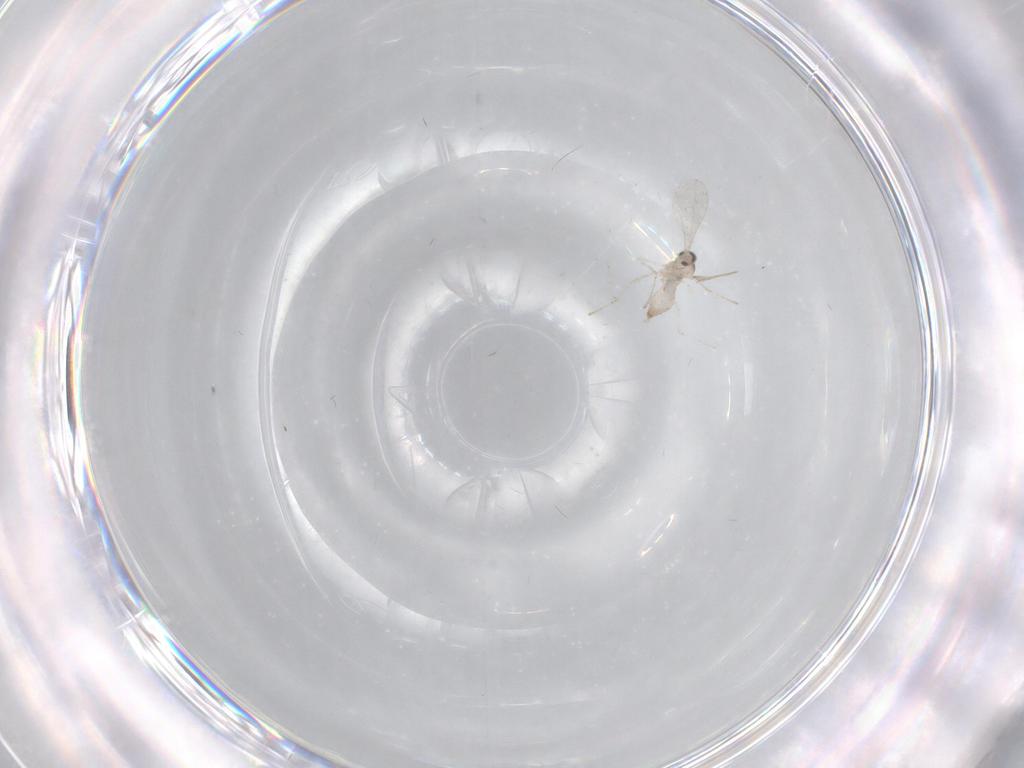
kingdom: Animalia
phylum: Arthropoda
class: Insecta
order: Diptera
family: Cecidomyiidae
